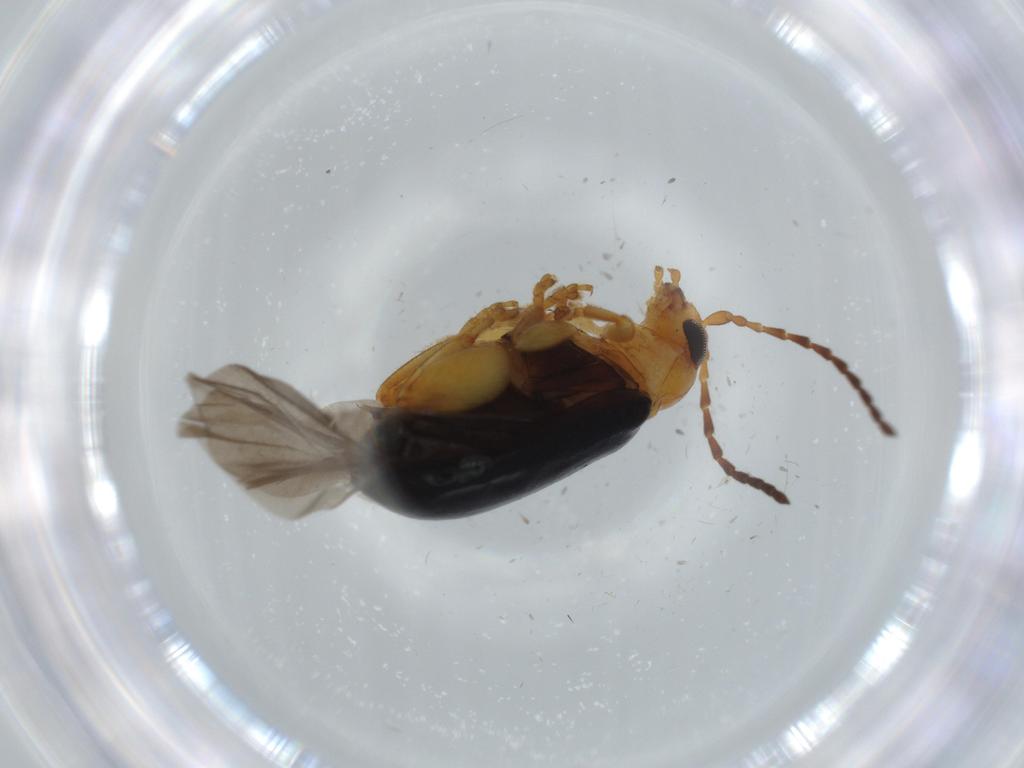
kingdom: Animalia
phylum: Arthropoda
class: Insecta
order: Coleoptera
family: Chrysomelidae
